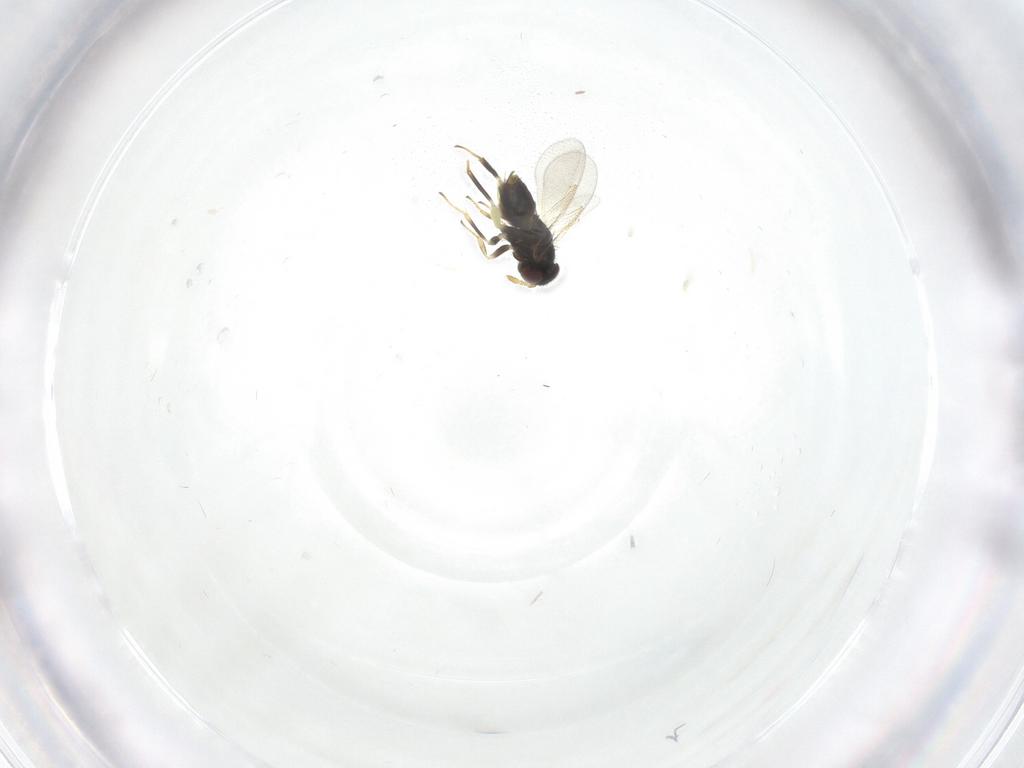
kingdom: Animalia
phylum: Arthropoda
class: Insecta
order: Hymenoptera
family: Aphelinidae
